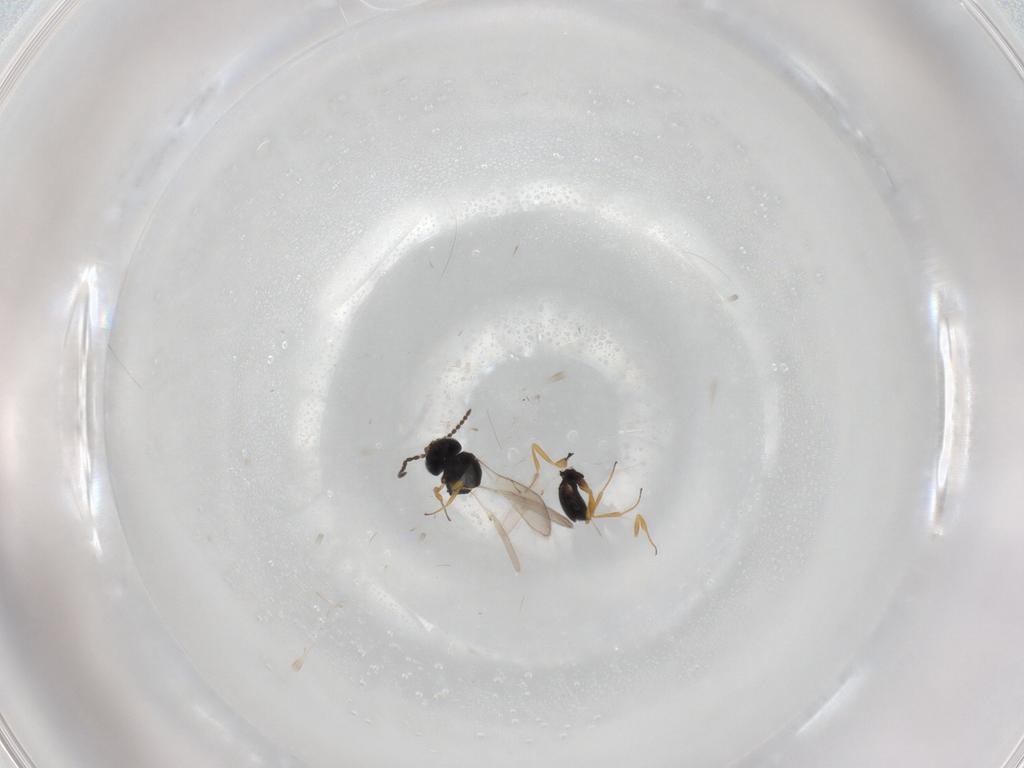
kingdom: Animalia
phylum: Arthropoda
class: Insecta
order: Hymenoptera
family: Scelionidae
